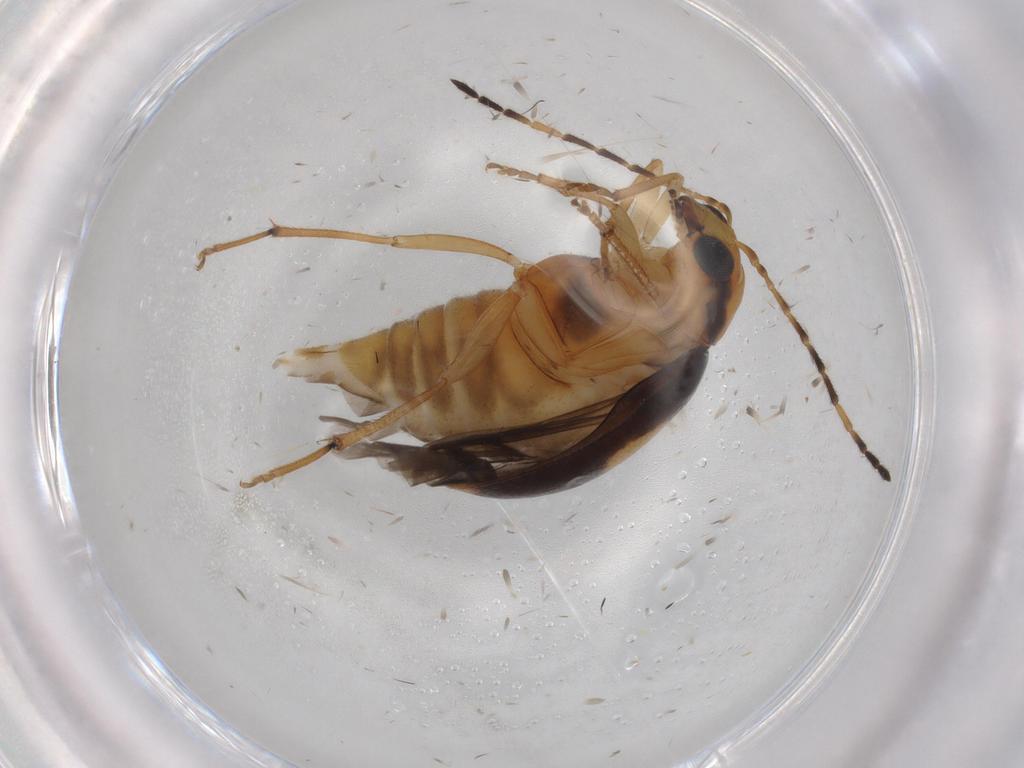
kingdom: Animalia
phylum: Arthropoda
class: Insecta
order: Coleoptera
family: Chrysomelidae
